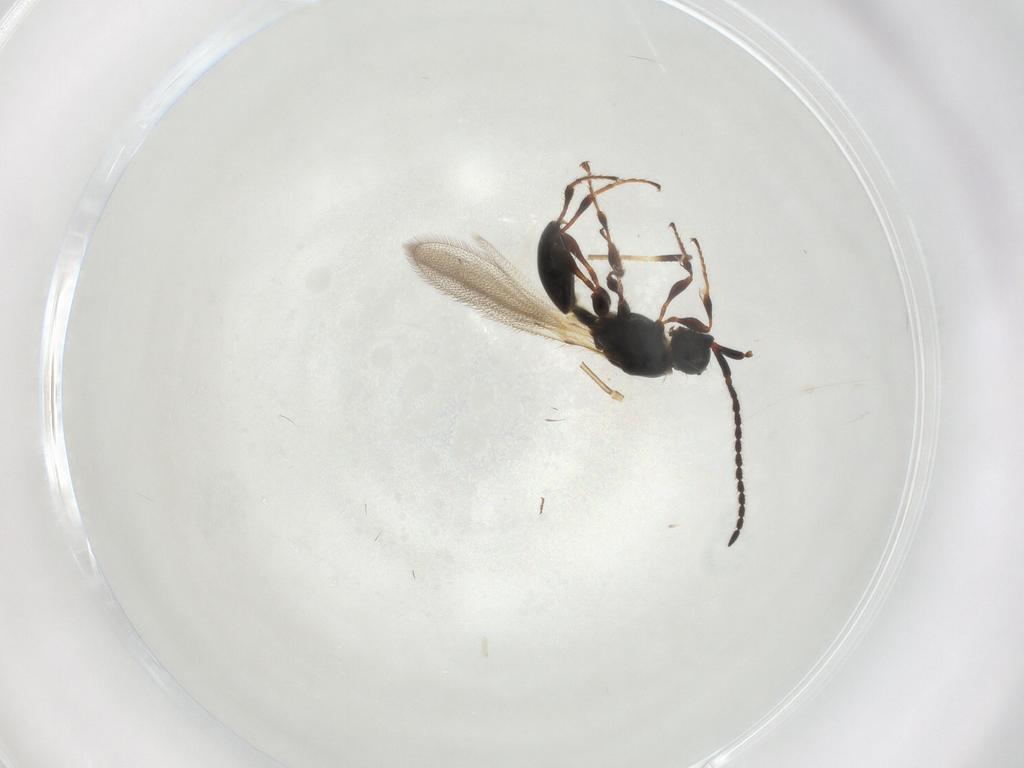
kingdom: Animalia
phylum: Arthropoda
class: Insecta
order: Hymenoptera
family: Diapriidae
